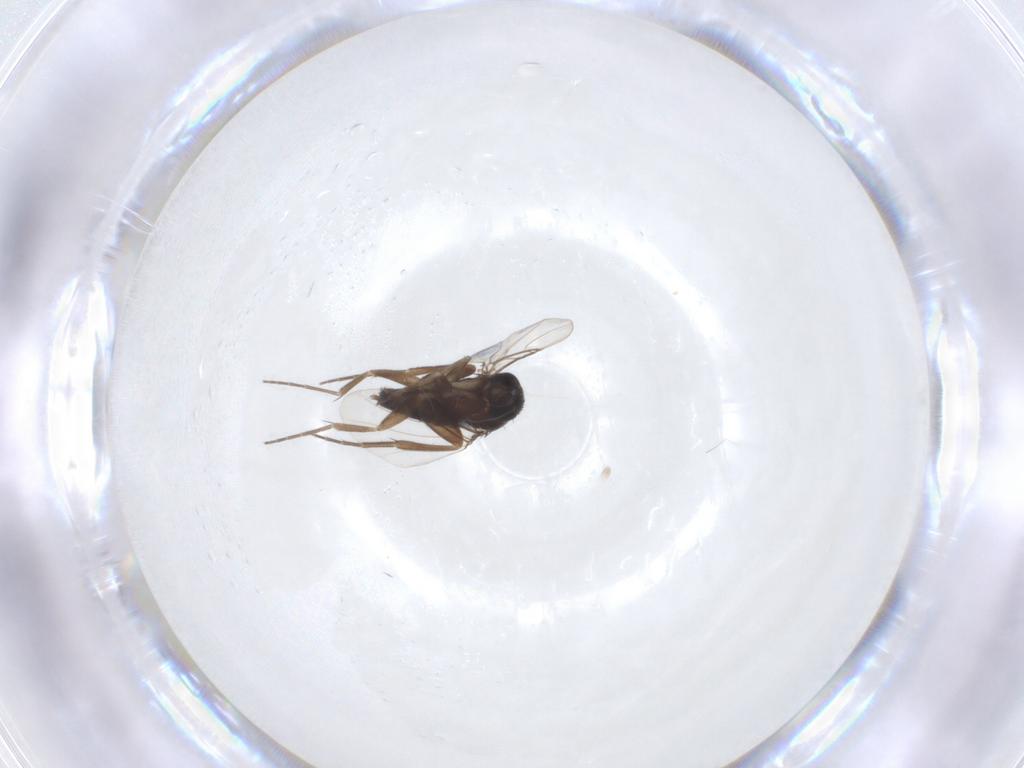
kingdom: Animalia
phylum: Arthropoda
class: Insecta
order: Diptera
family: Phoridae
